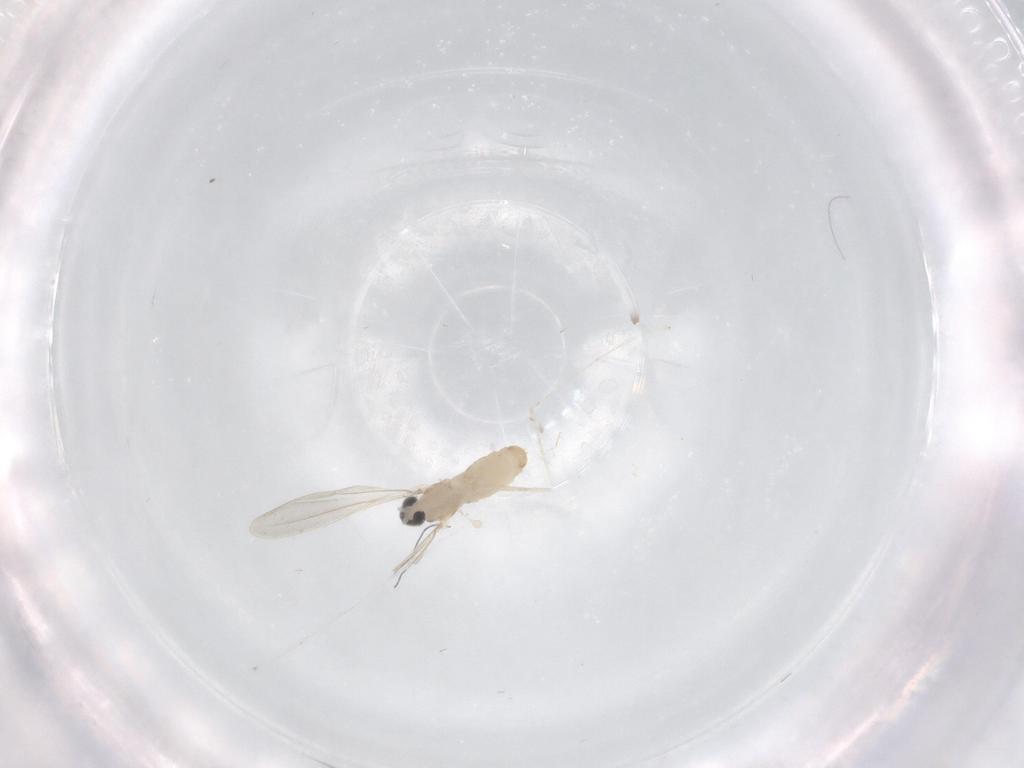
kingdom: Animalia
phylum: Arthropoda
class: Insecta
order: Diptera
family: Cecidomyiidae
